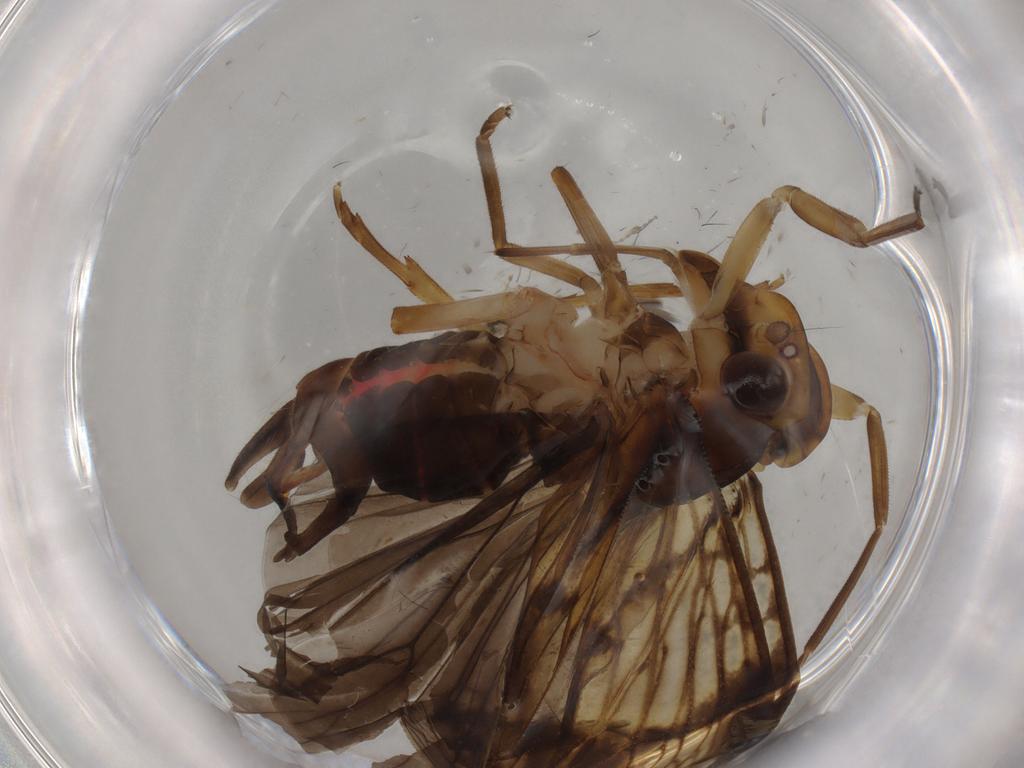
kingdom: Animalia
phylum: Arthropoda
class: Insecta
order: Hemiptera
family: Cixiidae
